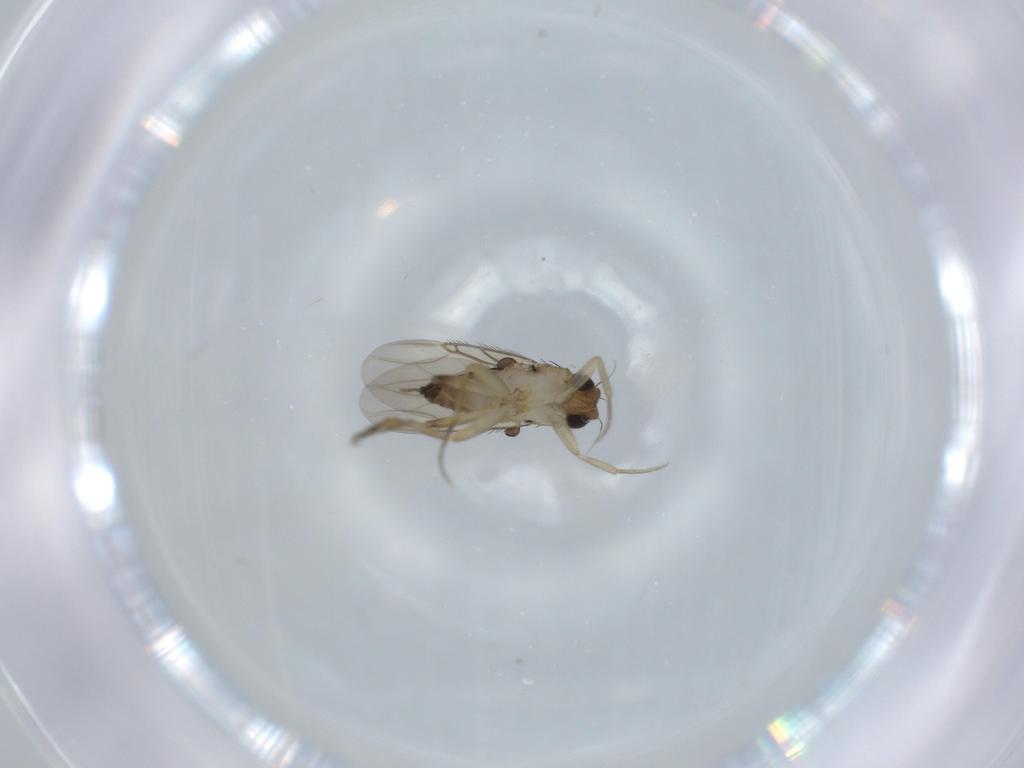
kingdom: Animalia
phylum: Arthropoda
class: Insecta
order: Diptera
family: Phoridae
